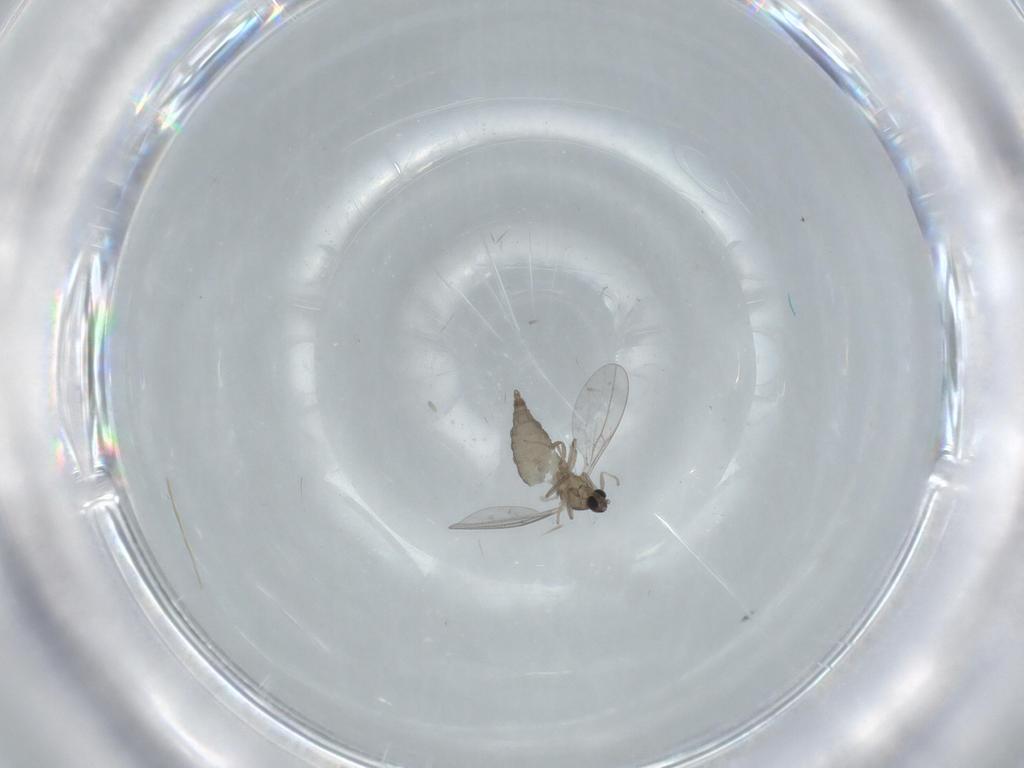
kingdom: Animalia
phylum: Arthropoda
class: Insecta
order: Diptera
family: Cecidomyiidae
